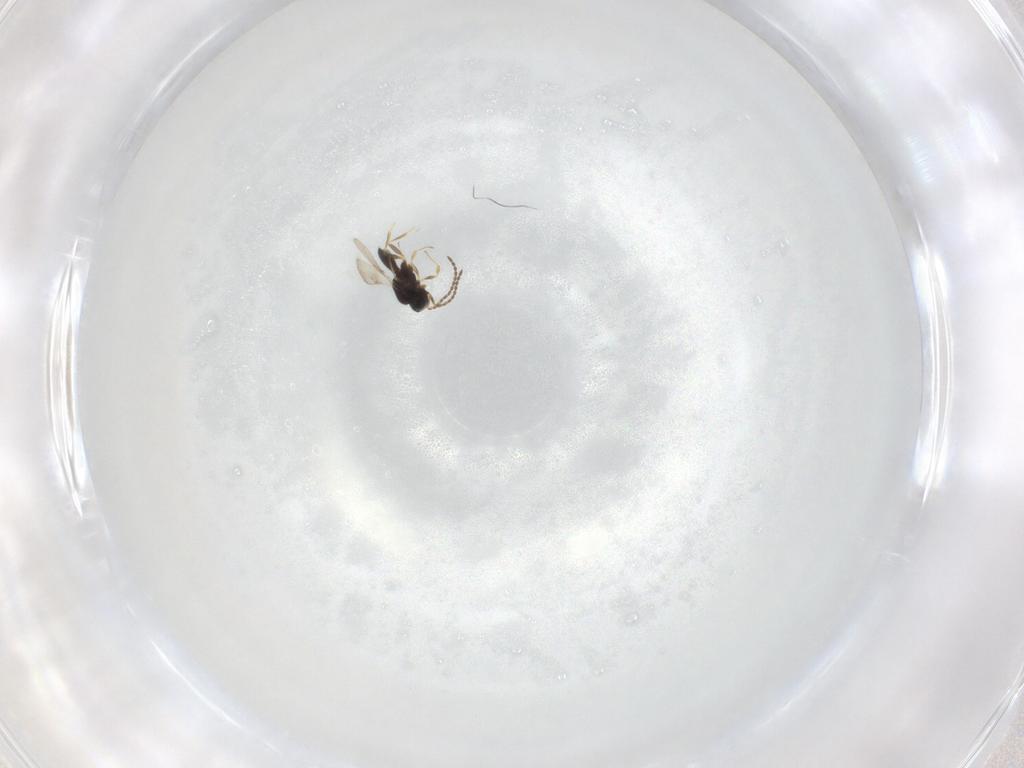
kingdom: Animalia
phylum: Arthropoda
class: Insecta
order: Hymenoptera
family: Scelionidae
